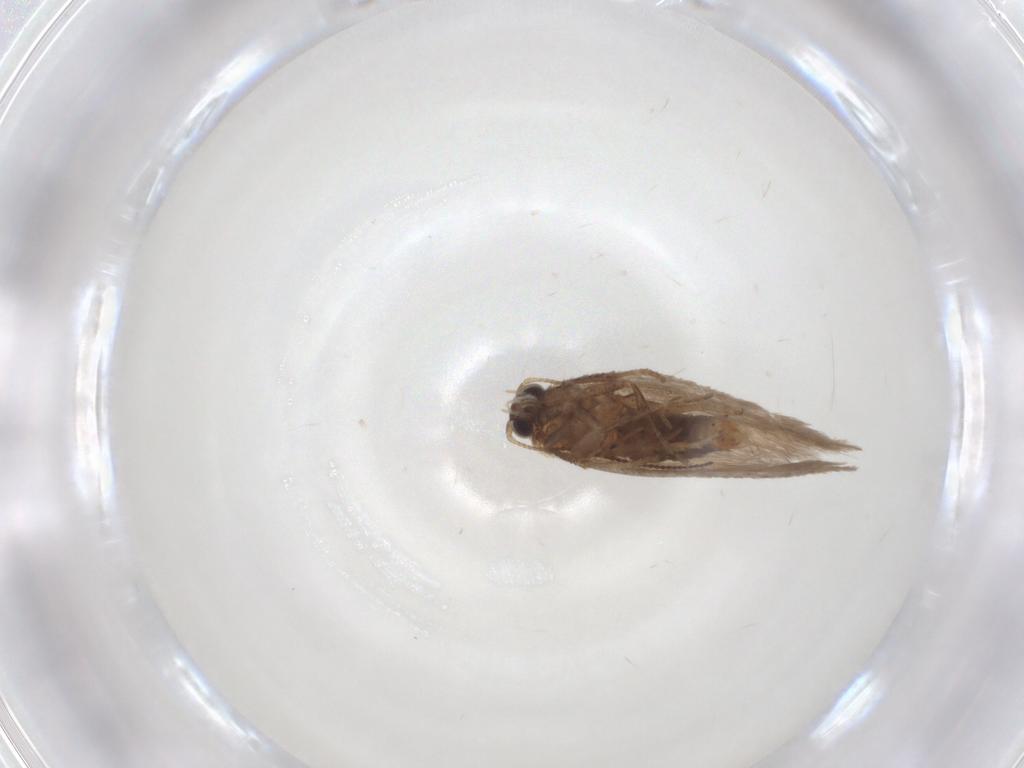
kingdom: Animalia
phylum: Arthropoda
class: Insecta
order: Lepidoptera
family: Nepticulidae
